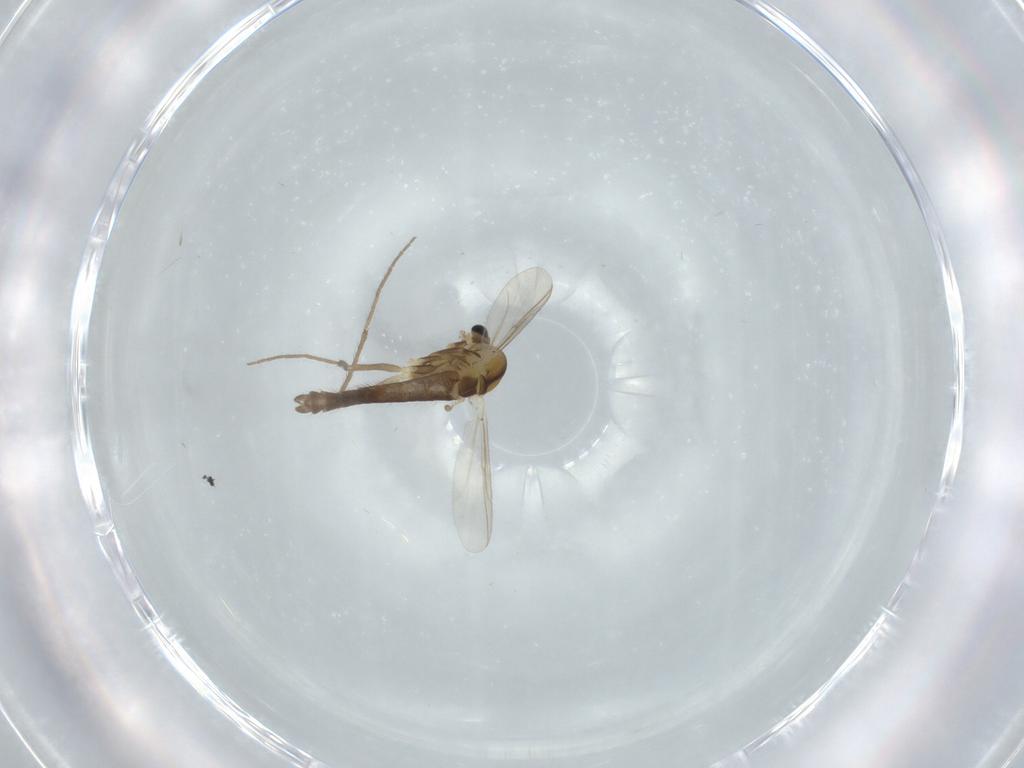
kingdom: Animalia
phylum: Arthropoda
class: Insecta
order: Diptera
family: Chironomidae
